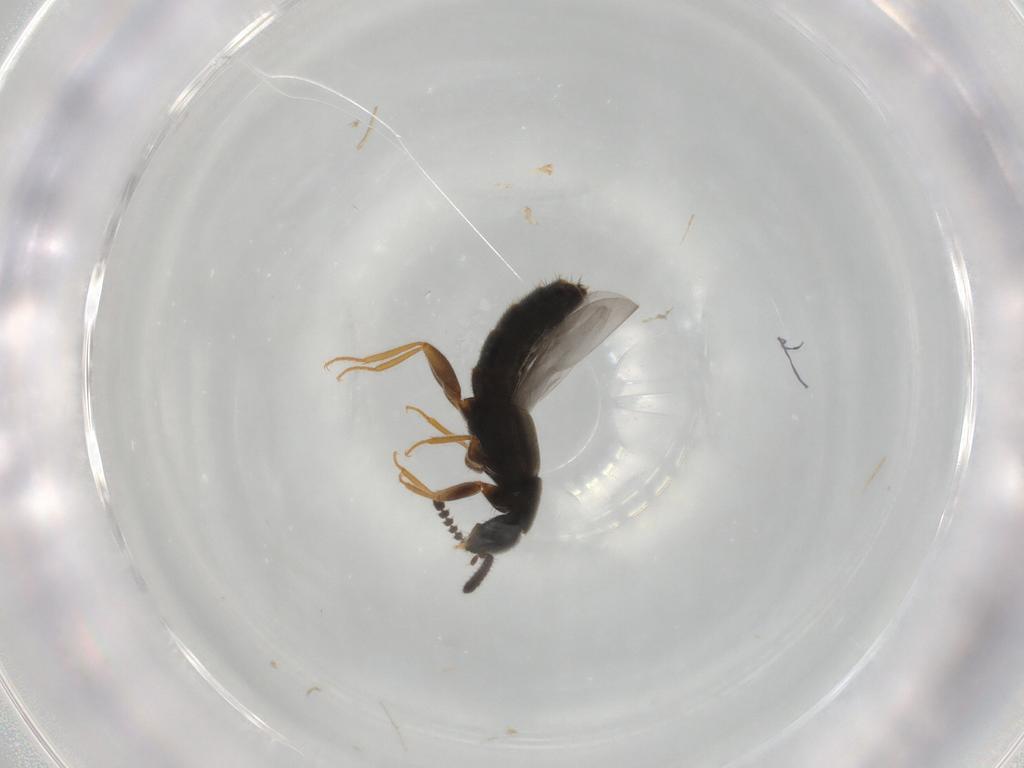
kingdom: Animalia
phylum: Arthropoda
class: Insecta
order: Coleoptera
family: Staphylinidae
